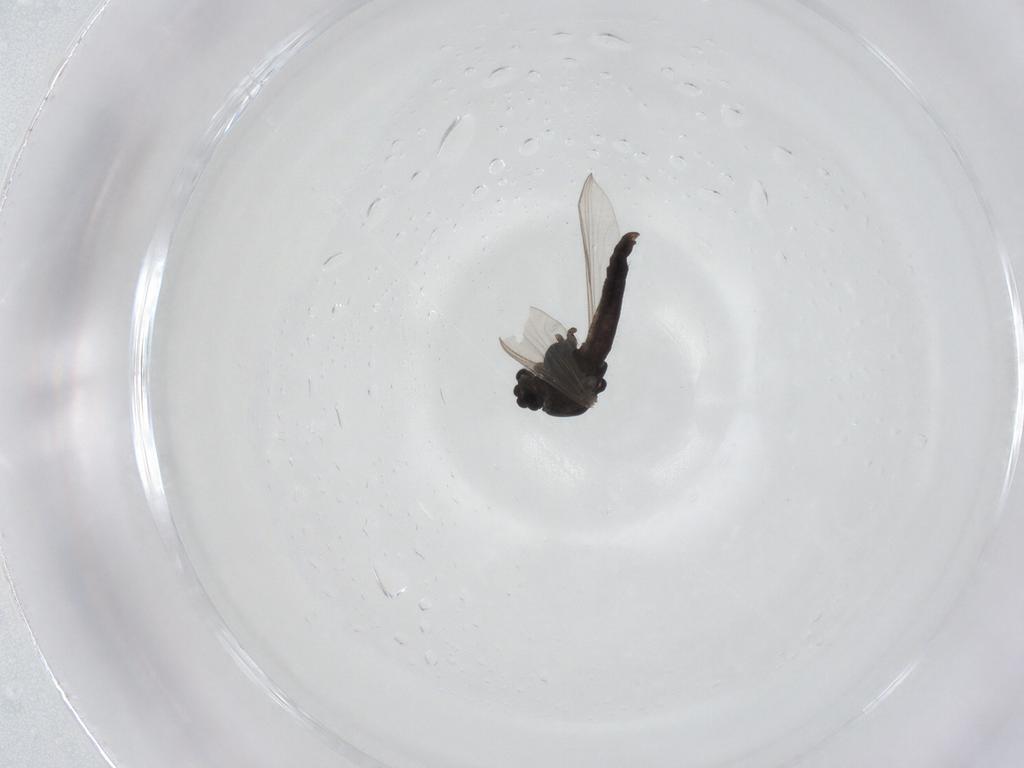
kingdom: Animalia
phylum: Arthropoda
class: Insecta
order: Diptera
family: Chironomidae
